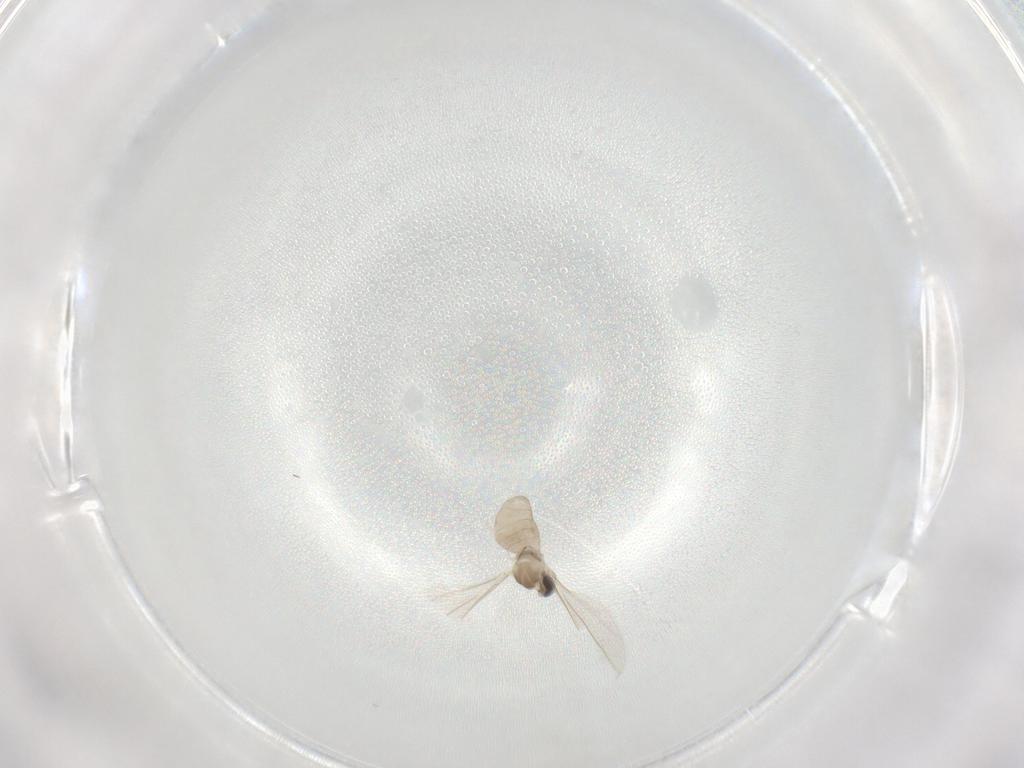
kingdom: Animalia
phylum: Arthropoda
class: Insecta
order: Diptera
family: Cecidomyiidae
